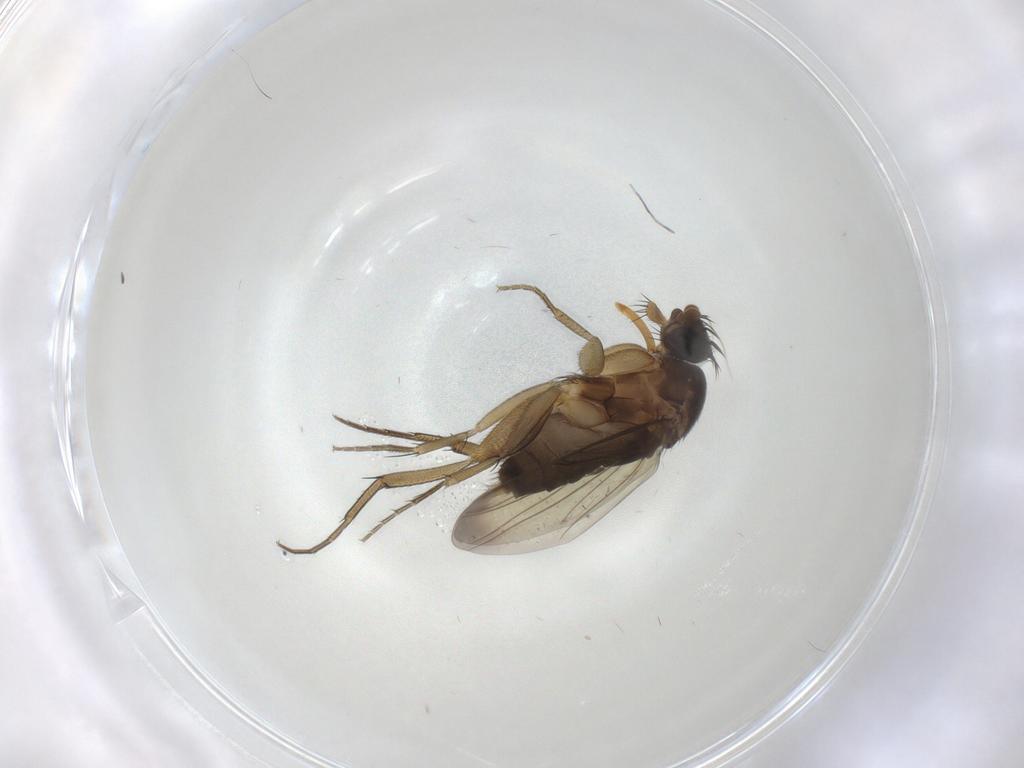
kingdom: Animalia
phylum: Arthropoda
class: Insecta
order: Diptera
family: Phoridae
